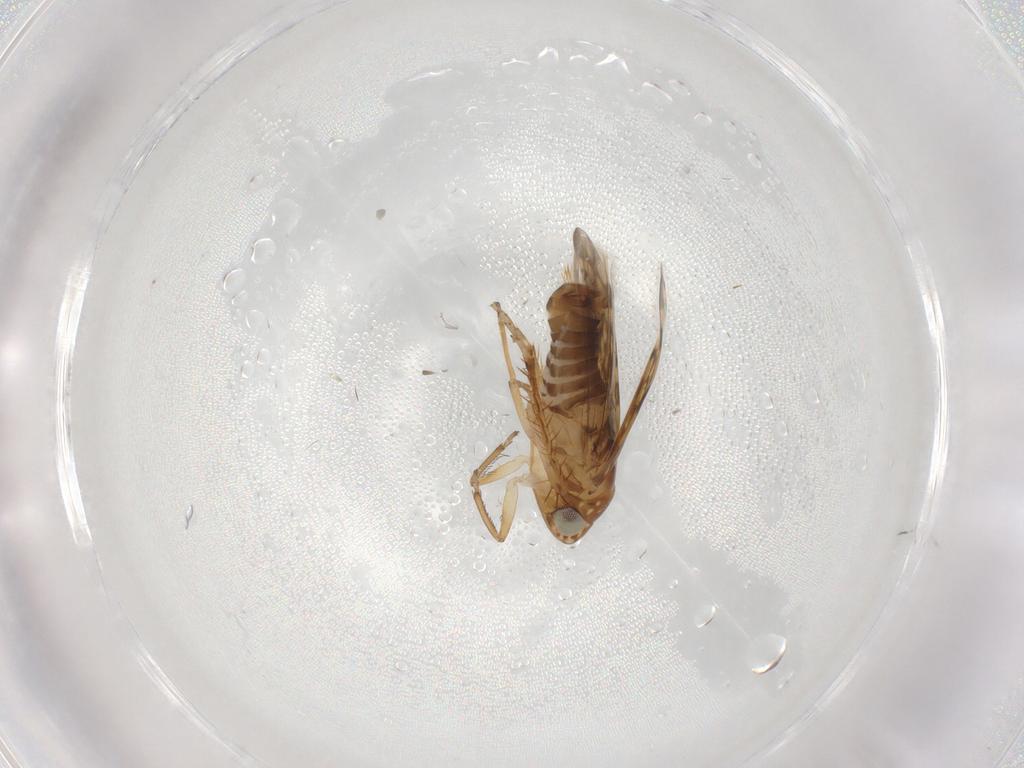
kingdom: Animalia
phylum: Arthropoda
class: Insecta
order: Hemiptera
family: Cicadellidae
